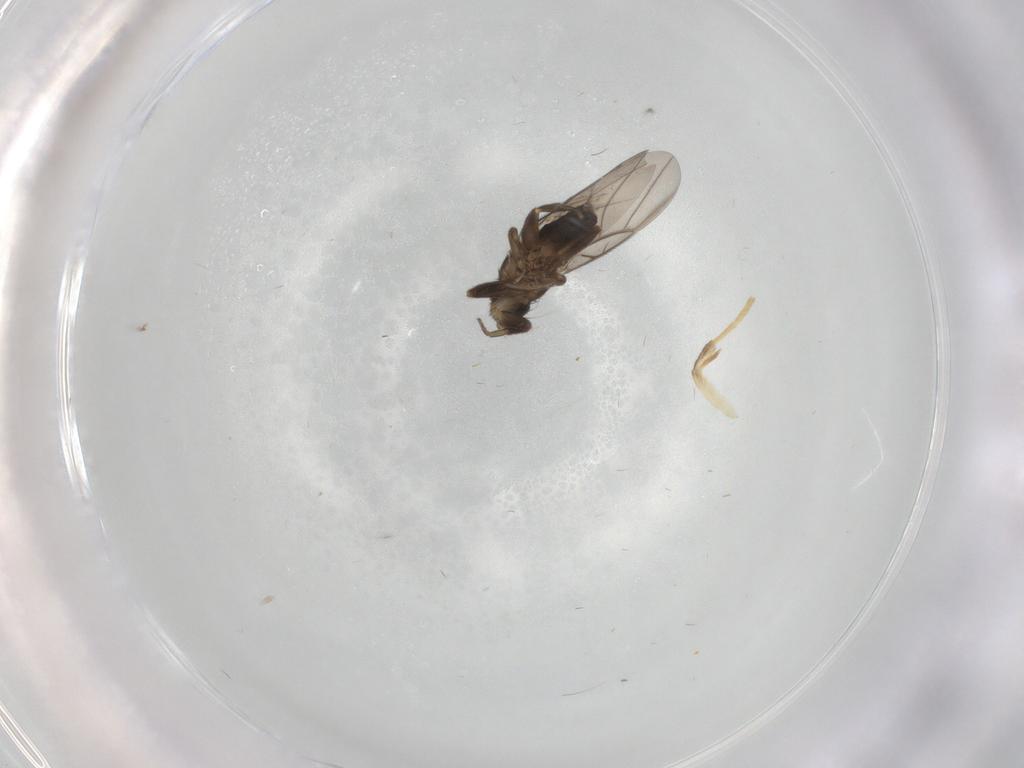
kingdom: Animalia
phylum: Arthropoda
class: Insecta
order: Diptera
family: Cecidomyiidae
